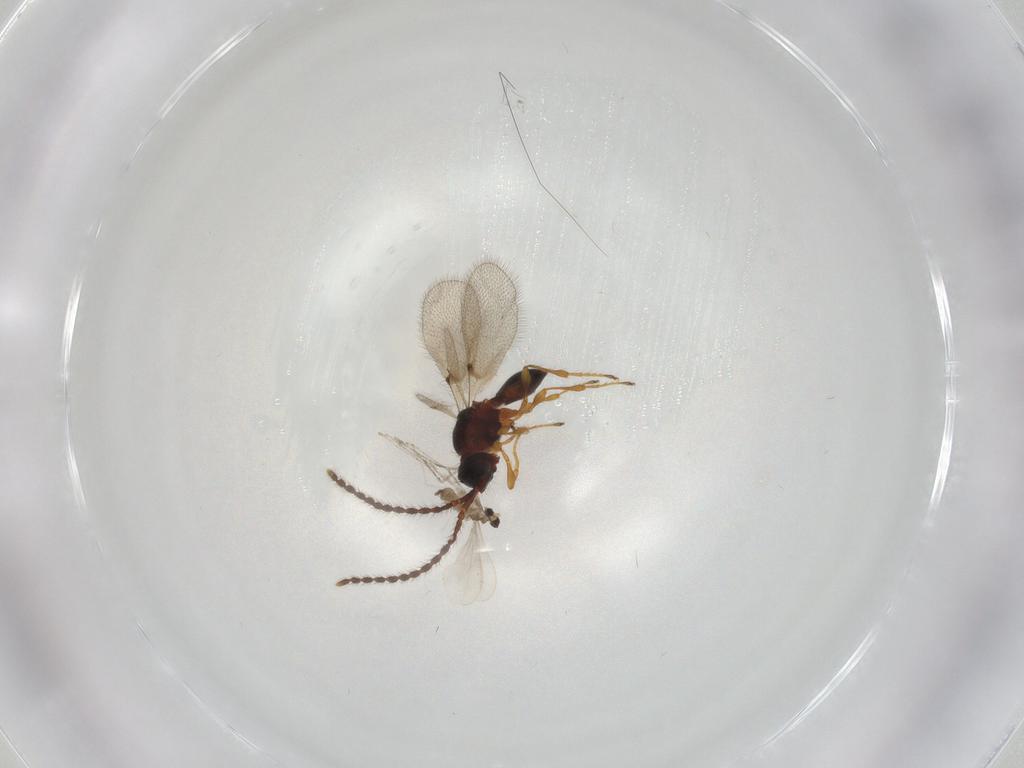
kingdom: Animalia
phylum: Arthropoda
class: Insecta
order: Diptera
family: Cecidomyiidae
